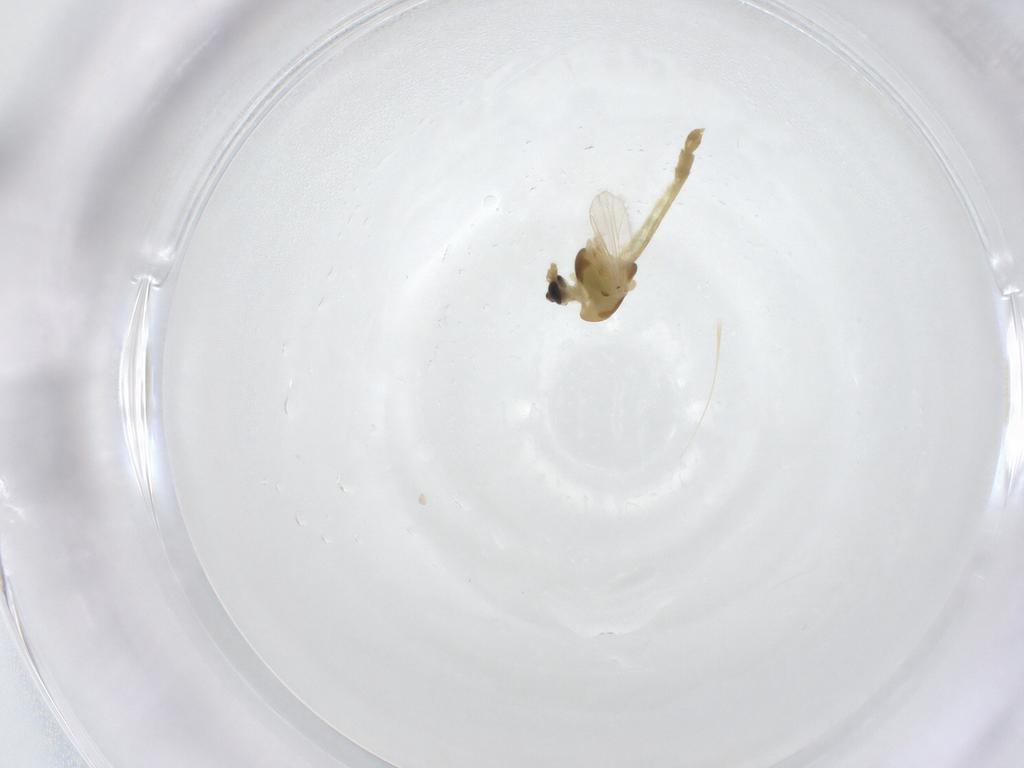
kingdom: Animalia
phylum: Arthropoda
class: Insecta
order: Diptera
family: Chironomidae
